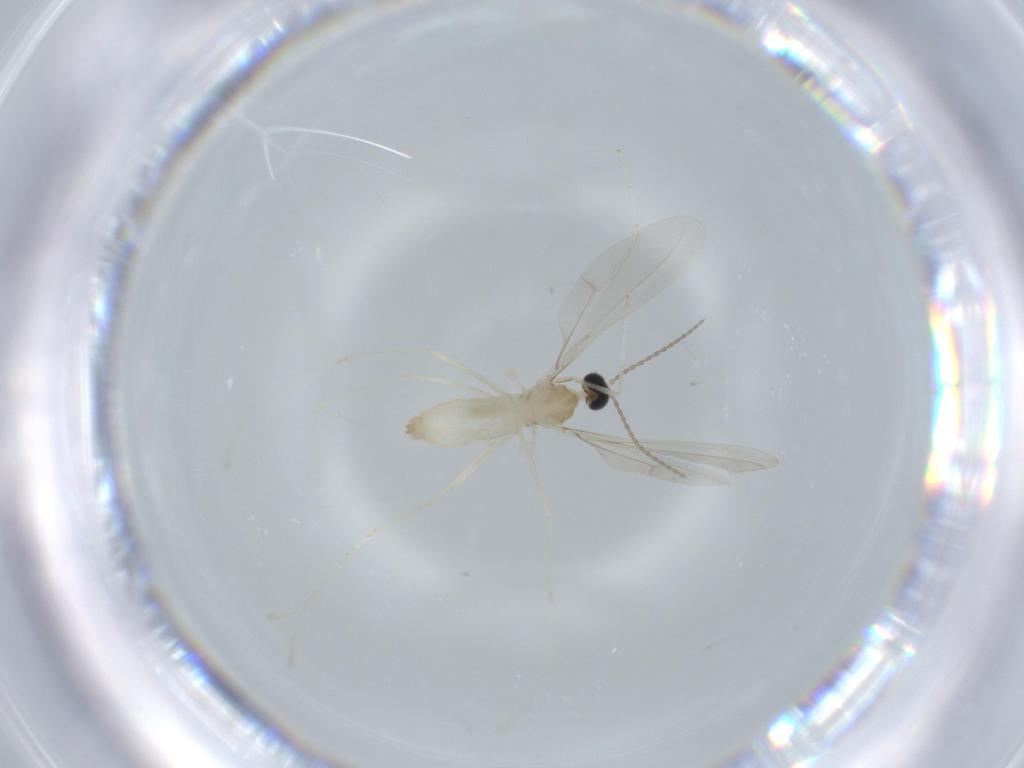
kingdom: Animalia
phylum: Arthropoda
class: Insecta
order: Diptera
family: Cecidomyiidae
